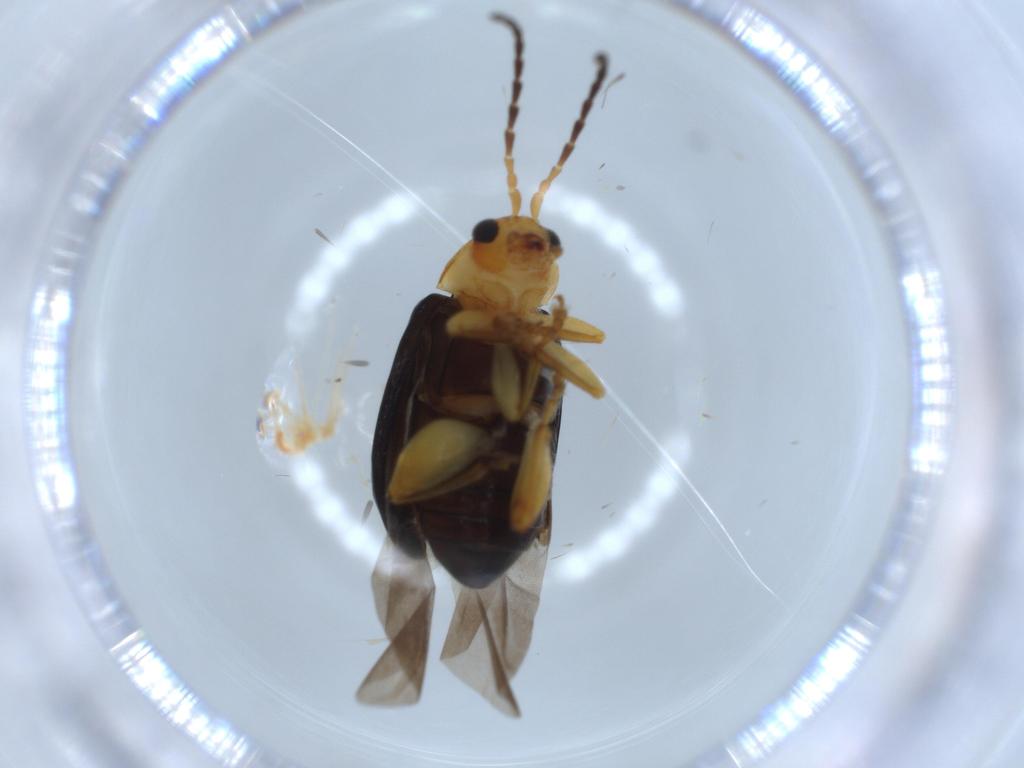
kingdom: Animalia
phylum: Arthropoda
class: Insecta
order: Coleoptera
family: Chrysomelidae
